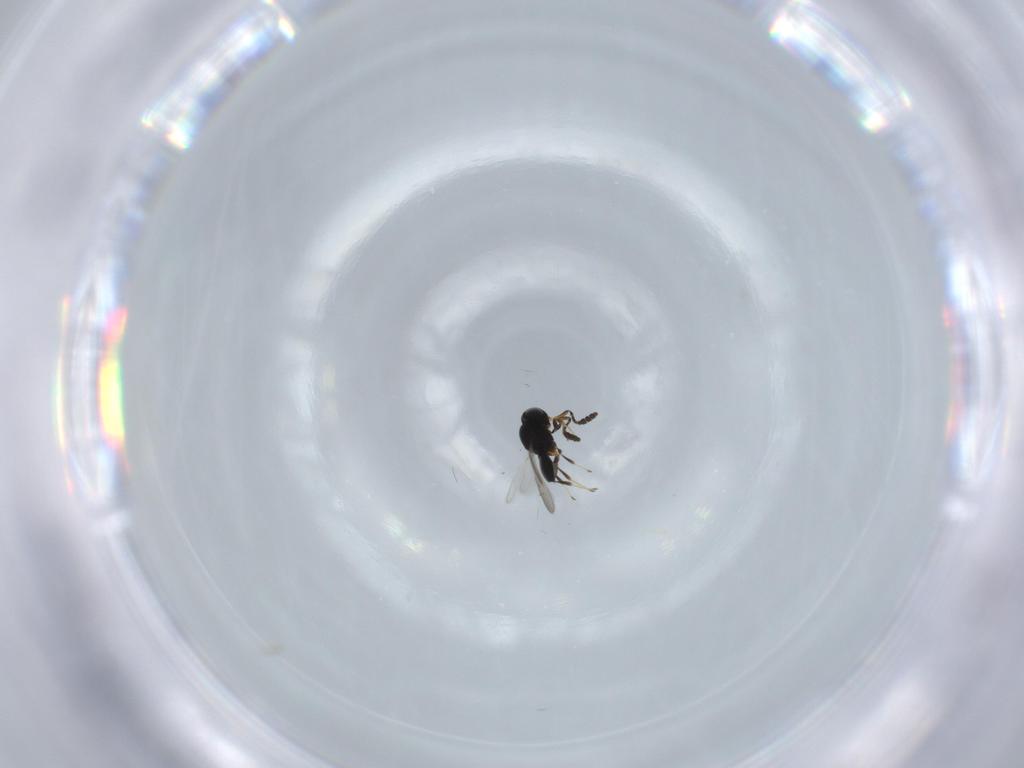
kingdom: Animalia
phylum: Arthropoda
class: Insecta
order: Hymenoptera
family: Scelionidae
